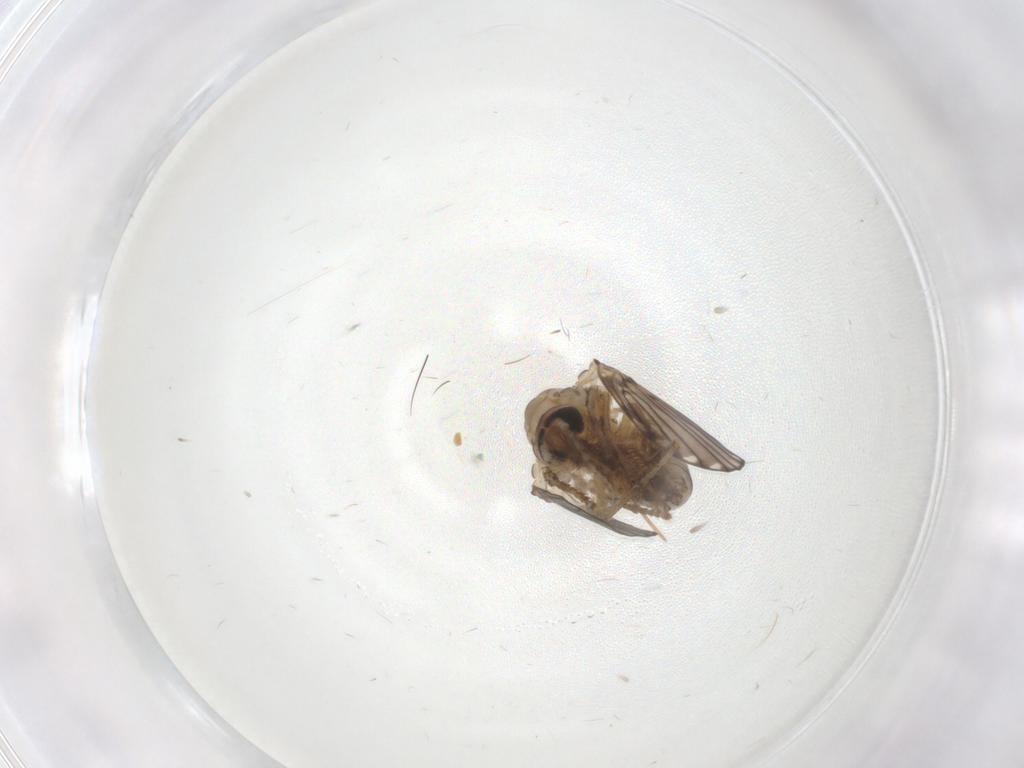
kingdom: Animalia
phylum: Arthropoda
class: Insecta
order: Diptera
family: Psychodidae
